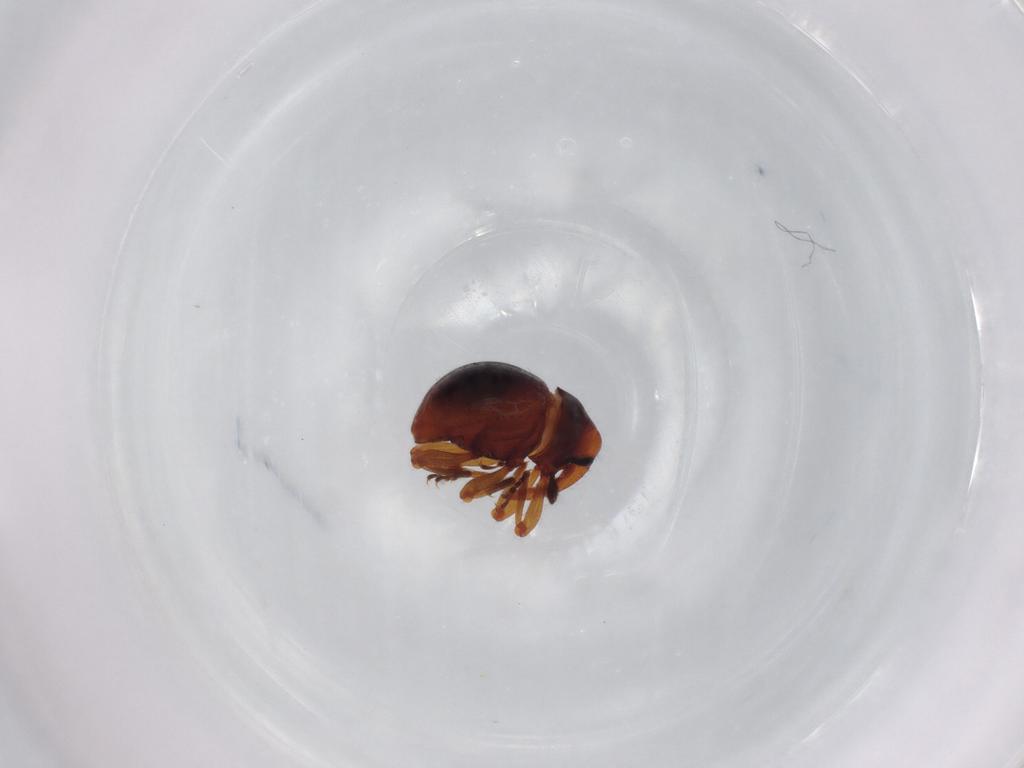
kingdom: Animalia
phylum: Arthropoda
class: Insecta
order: Coleoptera
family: Curculionidae
